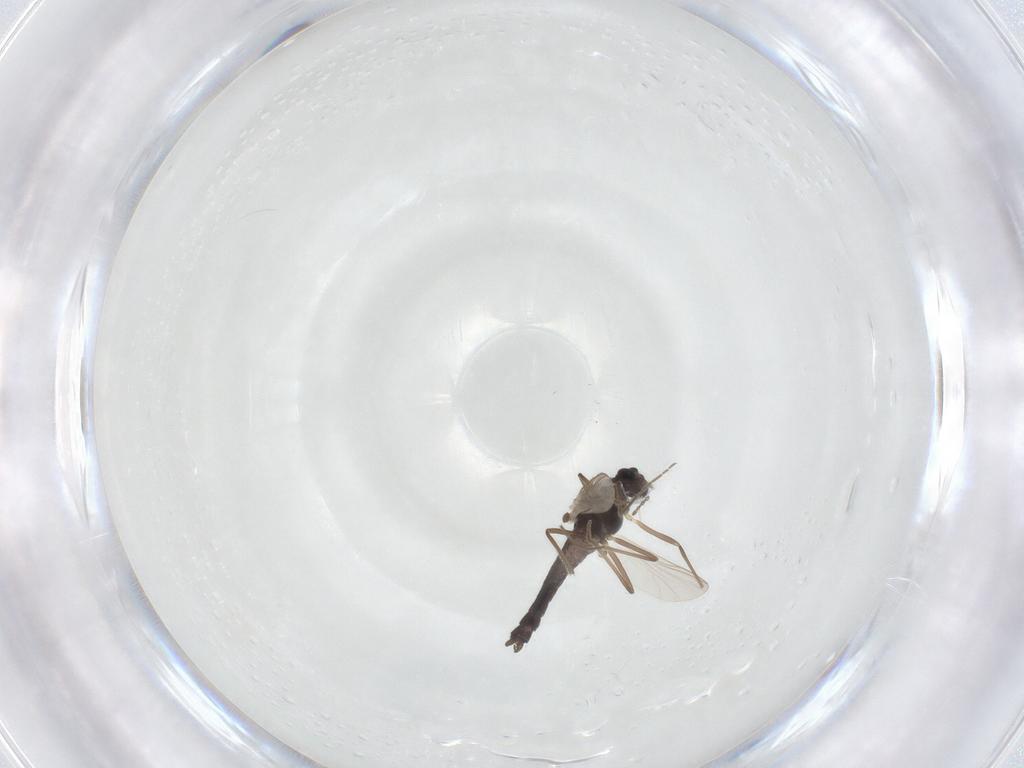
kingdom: Animalia
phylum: Arthropoda
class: Insecta
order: Diptera
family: Chironomidae
